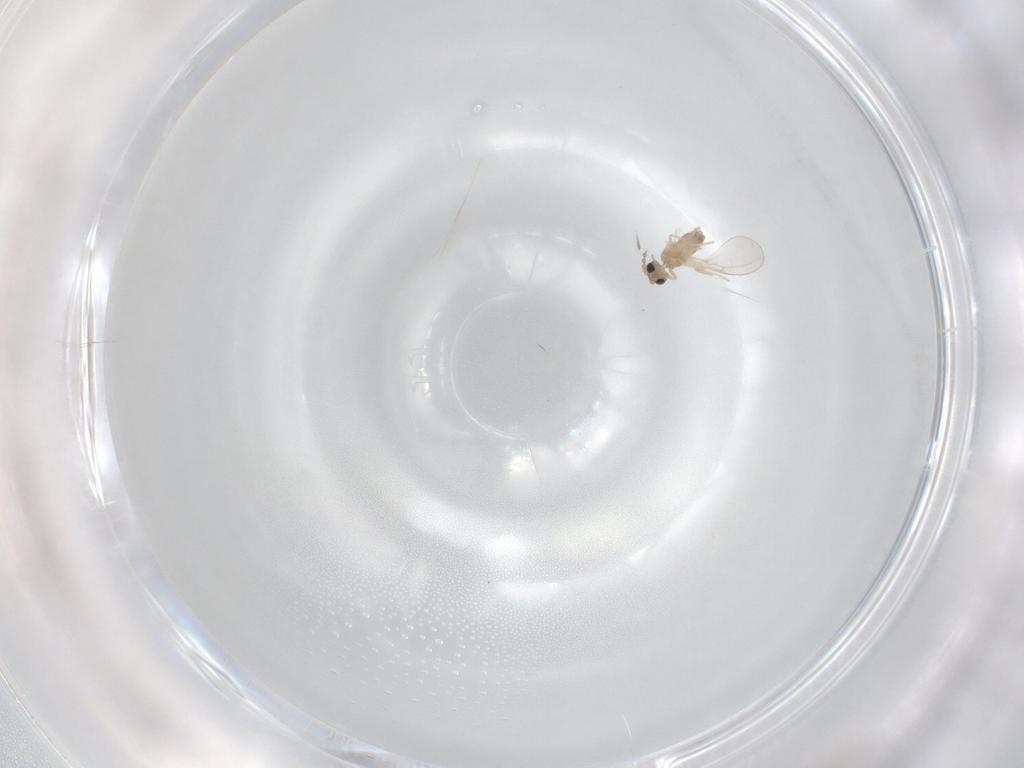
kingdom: Animalia
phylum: Arthropoda
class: Insecta
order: Diptera
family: Cecidomyiidae
